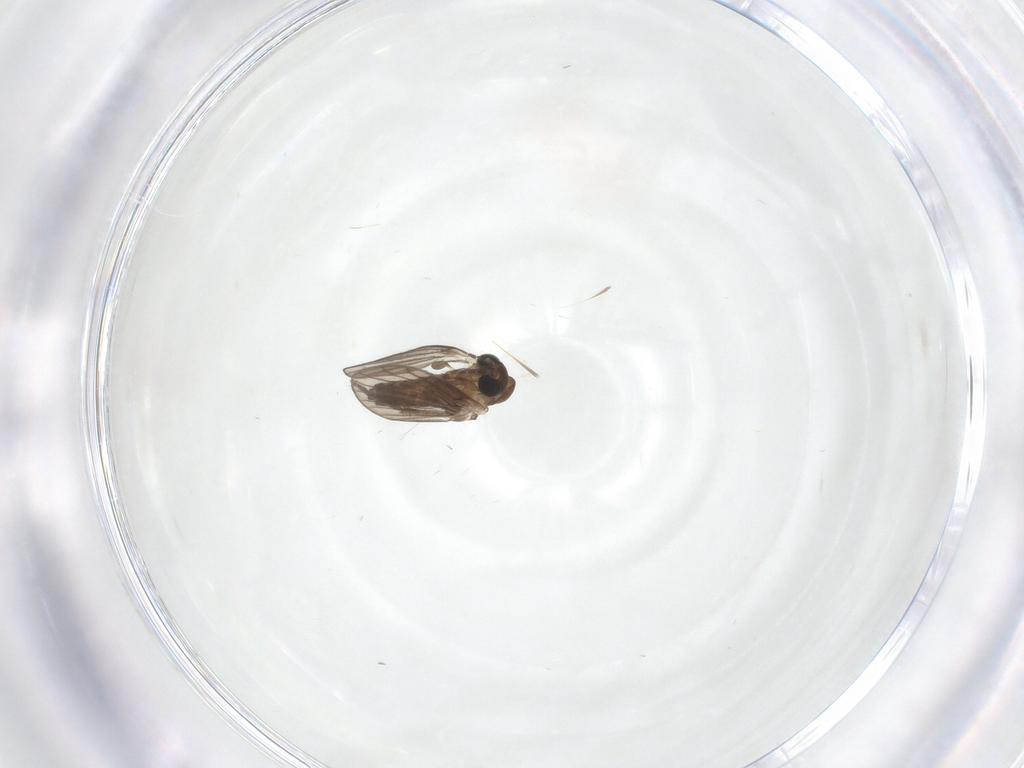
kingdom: Animalia
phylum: Arthropoda
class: Insecta
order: Diptera
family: Psychodidae
